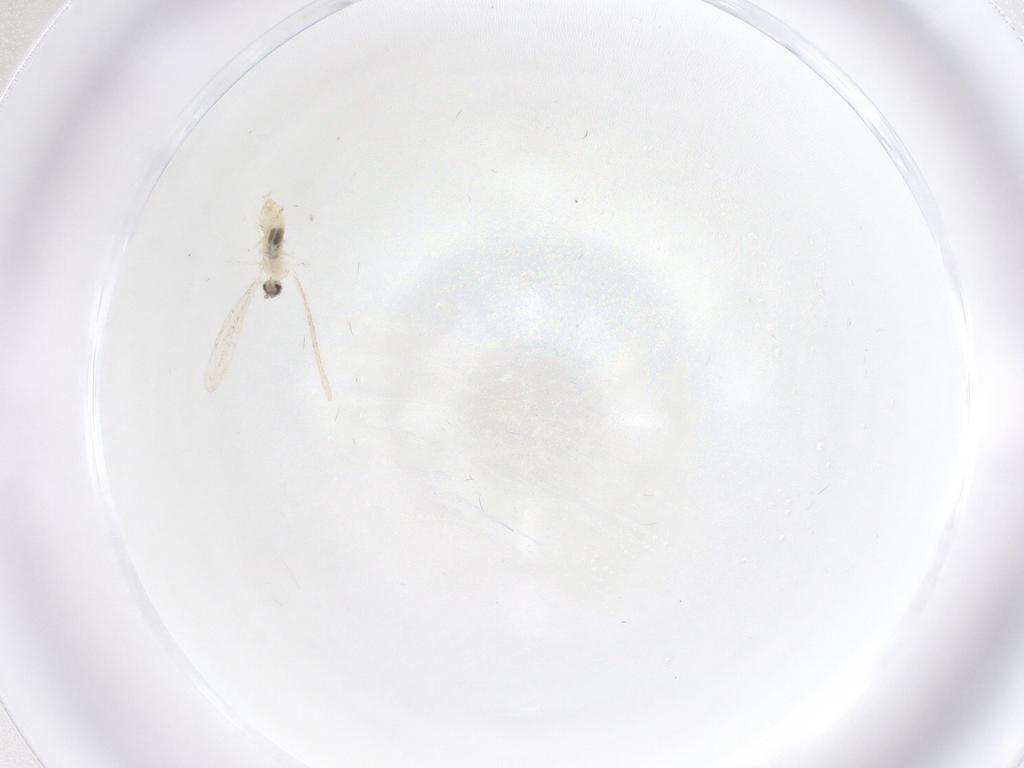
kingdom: Animalia
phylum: Arthropoda
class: Insecta
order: Diptera
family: Cecidomyiidae
